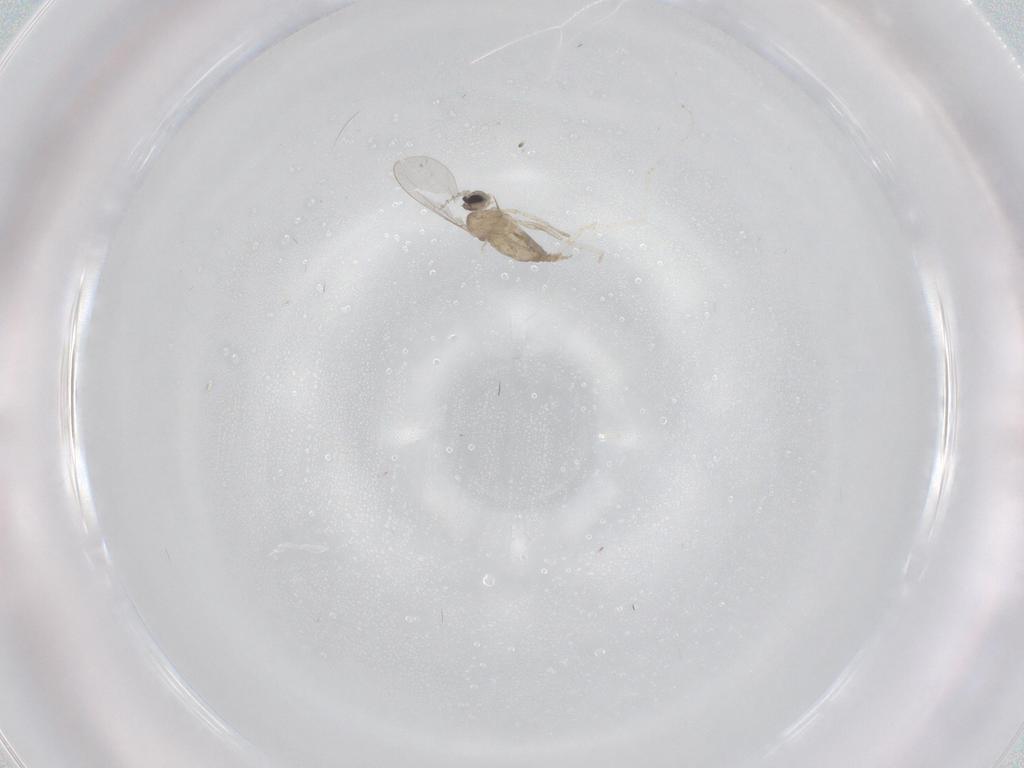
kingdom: Animalia
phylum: Arthropoda
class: Insecta
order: Diptera
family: Cecidomyiidae
